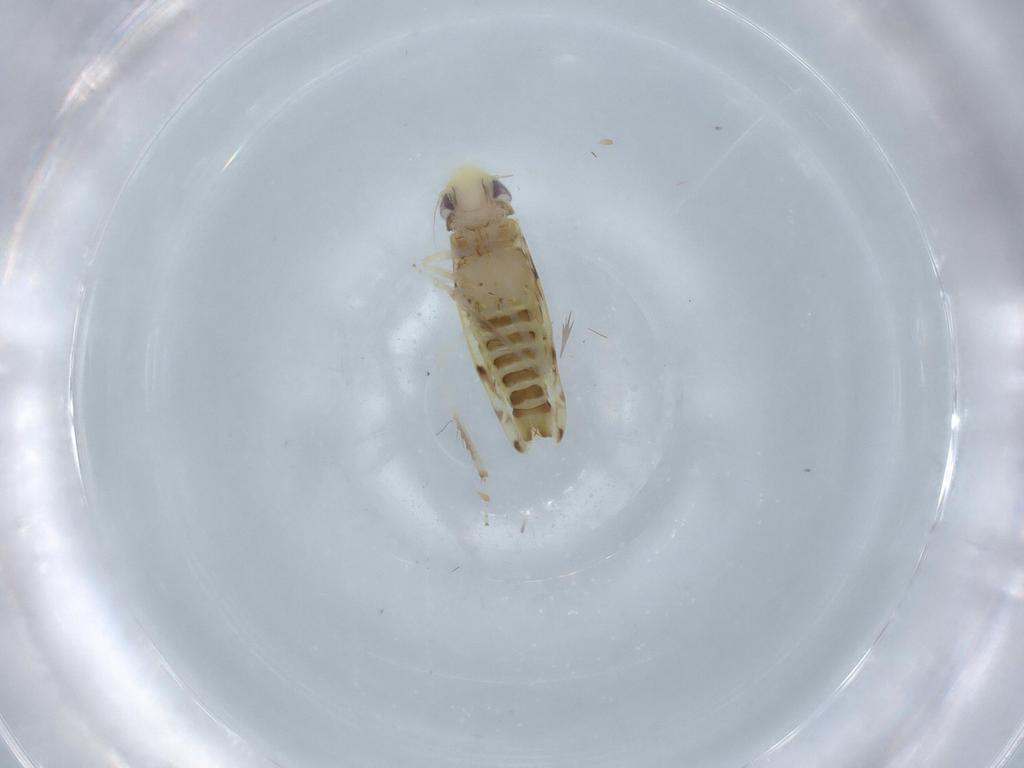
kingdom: Animalia
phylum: Arthropoda
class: Insecta
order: Hemiptera
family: Cicadellidae
